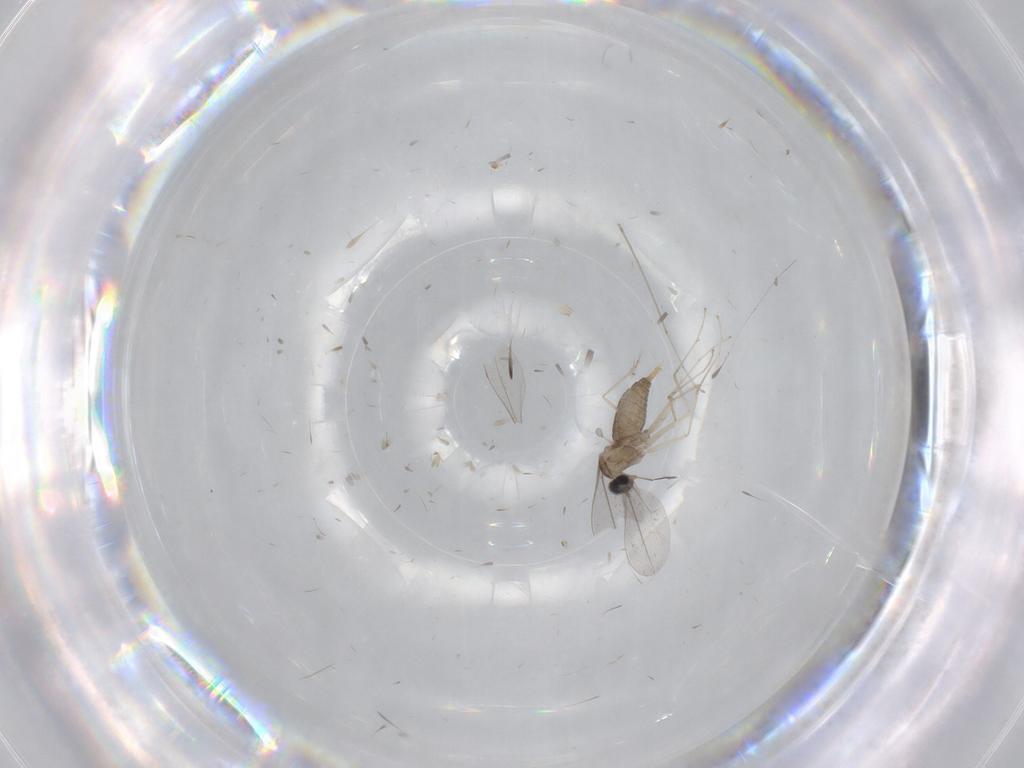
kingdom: Animalia
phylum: Arthropoda
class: Insecta
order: Diptera
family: Cecidomyiidae
